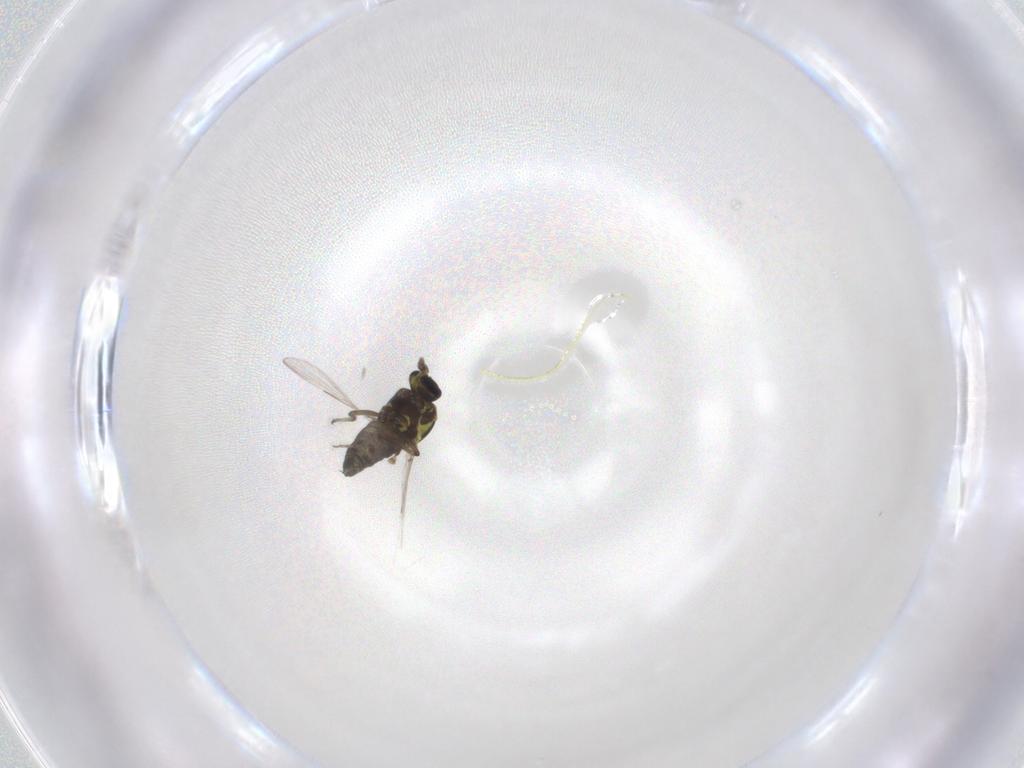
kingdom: Animalia
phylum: Arthropoda
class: Insecta
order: Diptera
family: Ceratopogonidae
